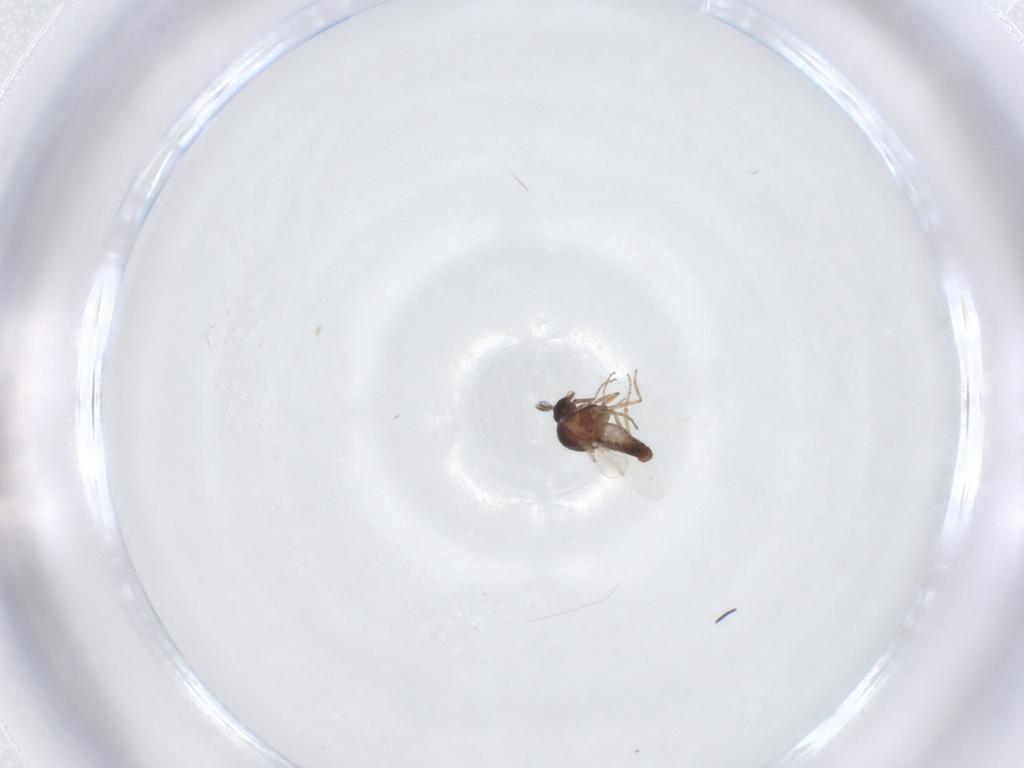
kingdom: Animalia
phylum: Arthropoda
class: Insecta
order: Diptera
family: Ceratopogonidae
